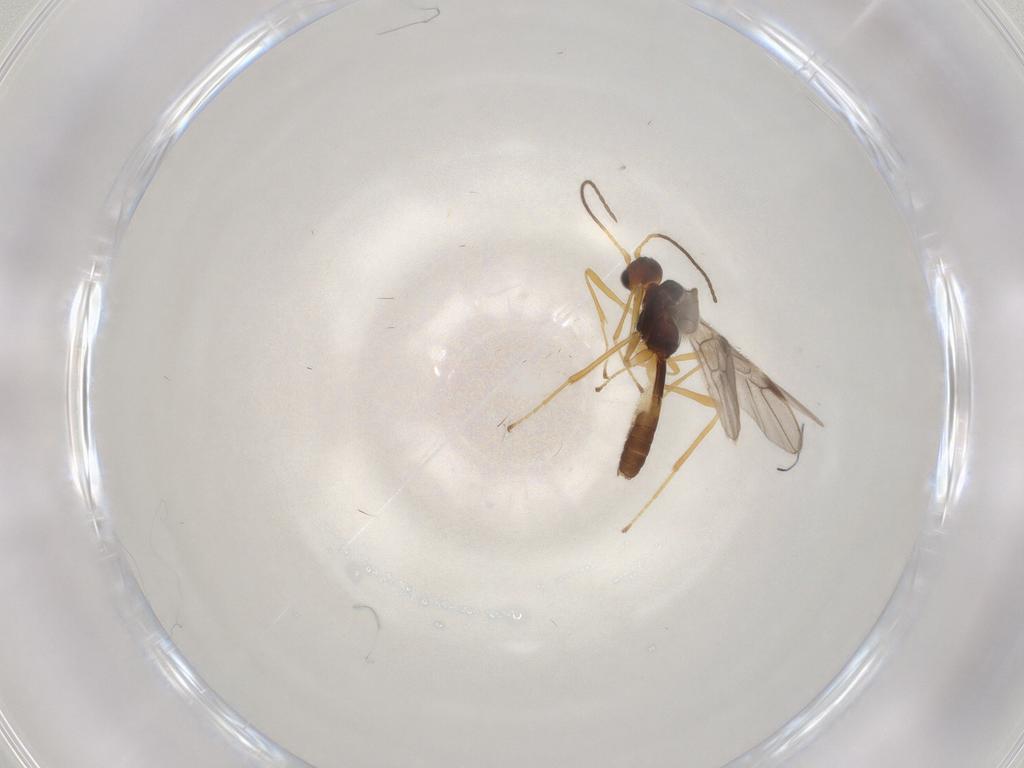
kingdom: Animalia
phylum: Arthropoda
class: Insecta
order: Hymenoptera
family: Braconidae
